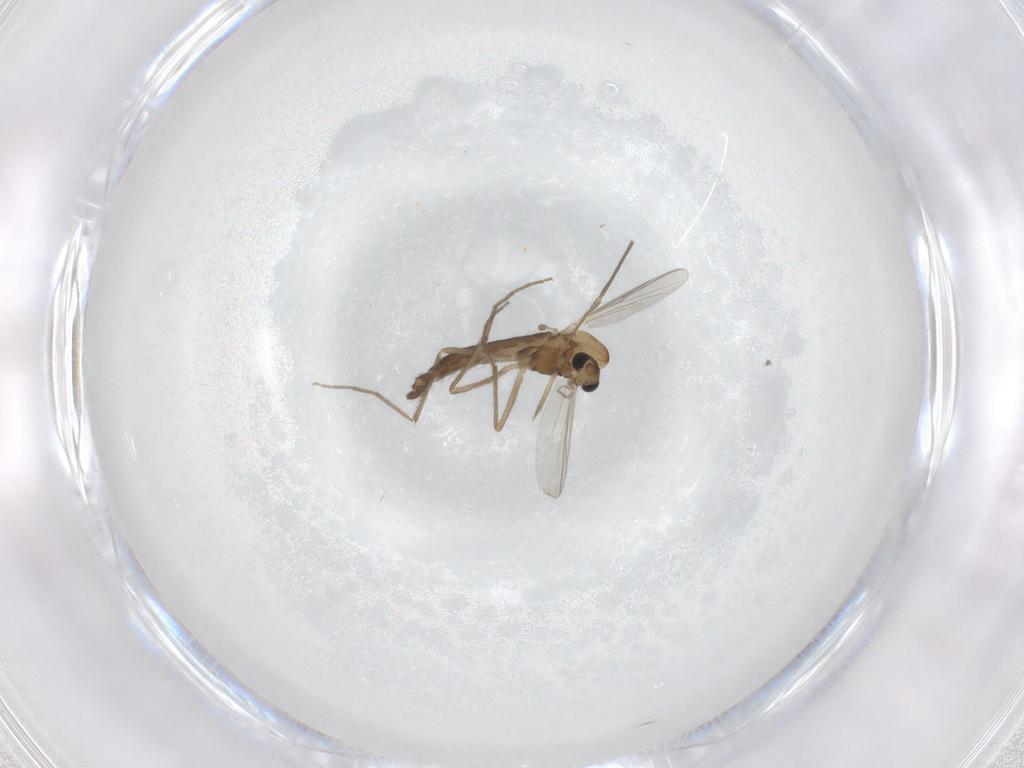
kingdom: Animalia
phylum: Arthropoda
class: Insecta
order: Diptera
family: Chironomidae
